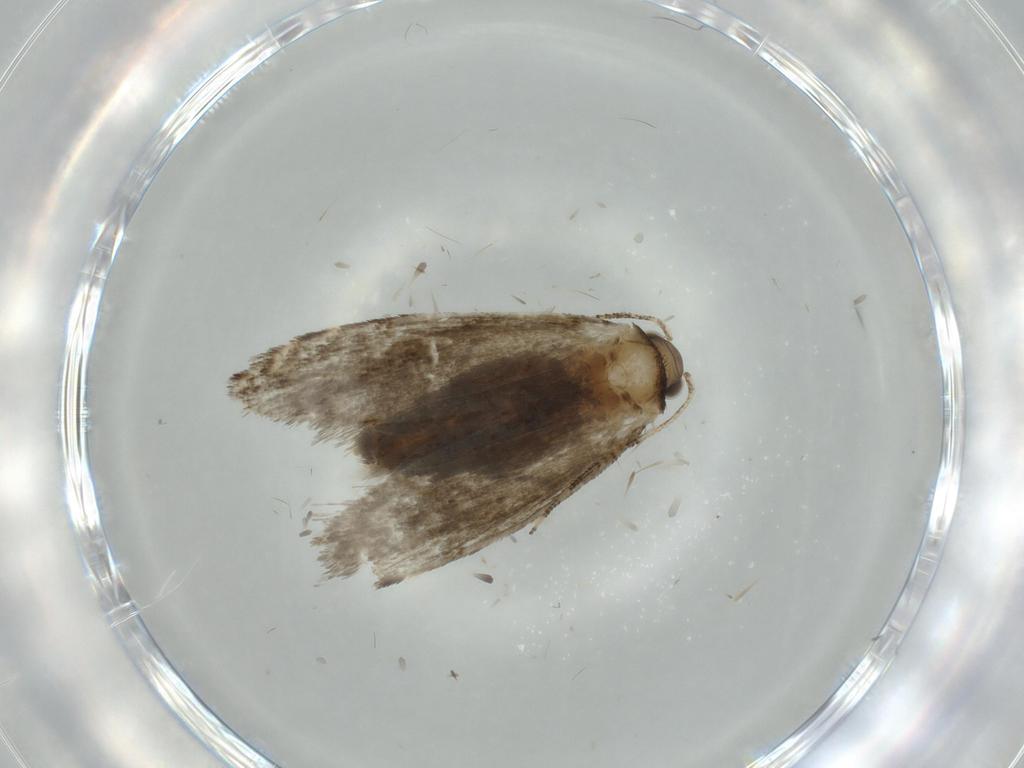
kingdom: Animalia
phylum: Arthropoda
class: Insecta
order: Lepidoptera
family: Tineidae
